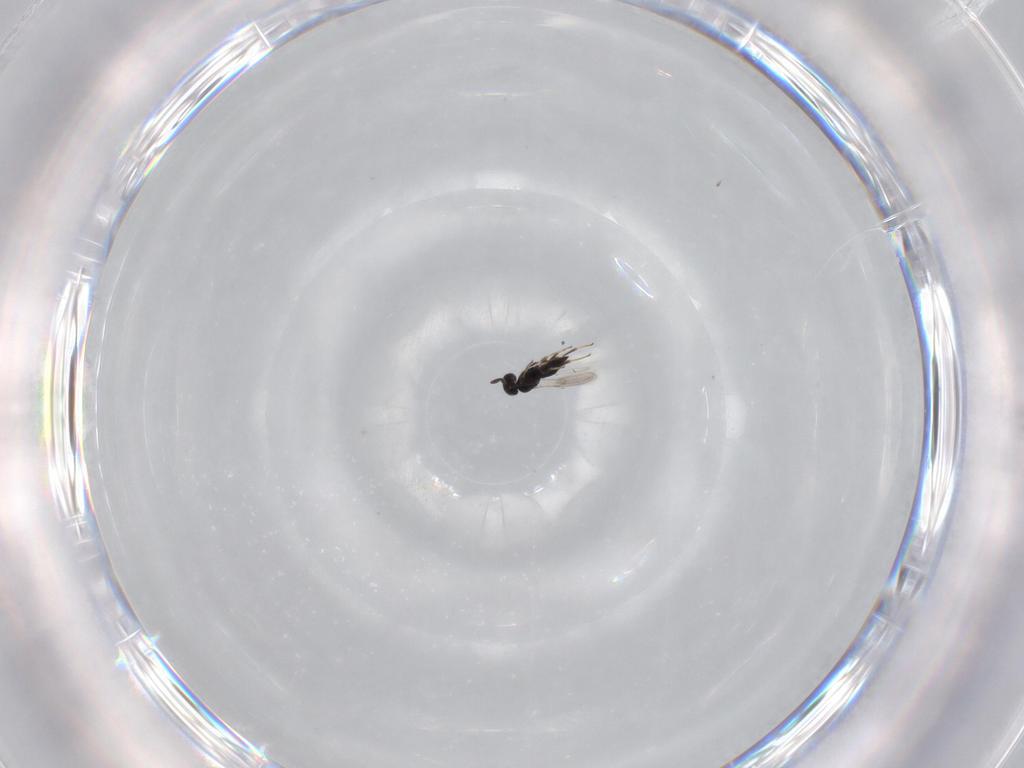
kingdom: Animalia
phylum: Arthropoda
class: Insecta
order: Hymenoptera
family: Scelionidae
